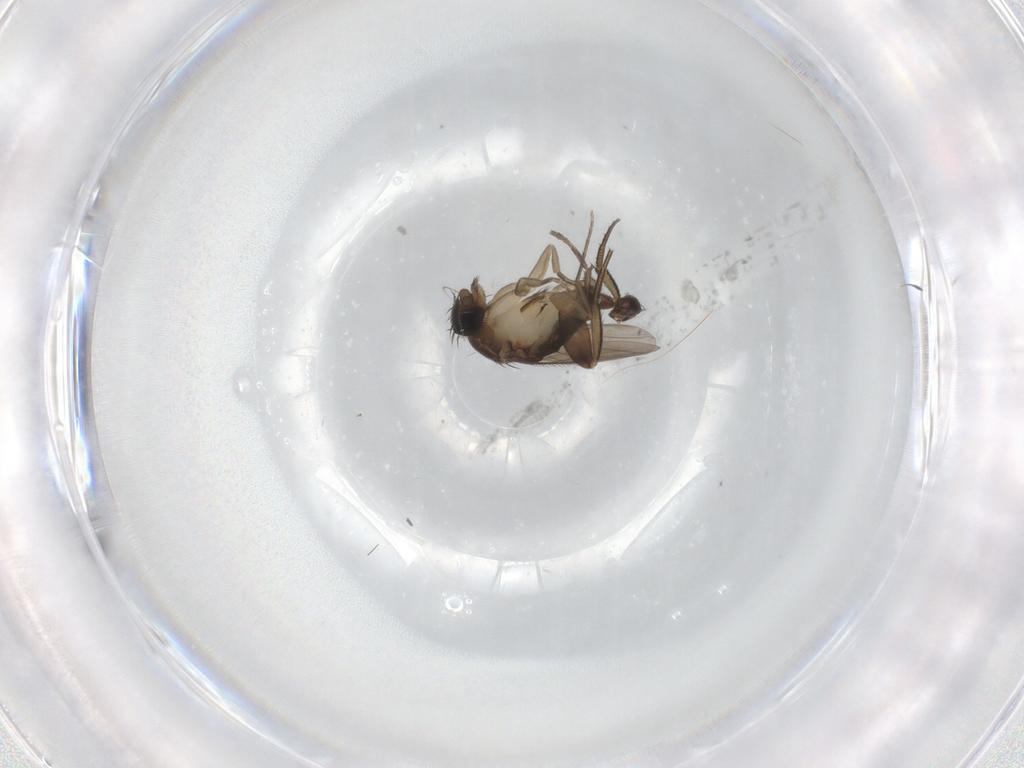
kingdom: Animalia
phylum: Arthropoda
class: Insecta
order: Diptera
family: Phoridae
